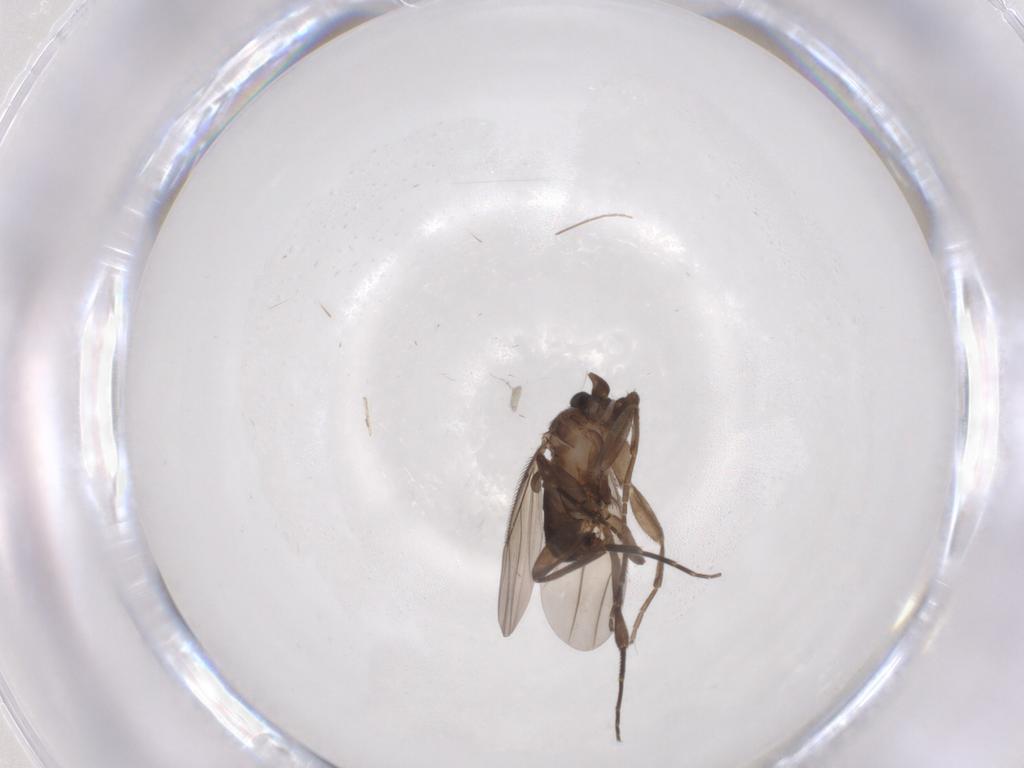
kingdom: Animalia
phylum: Arthropoda
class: Insecta
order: Diptera
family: Phoridae
